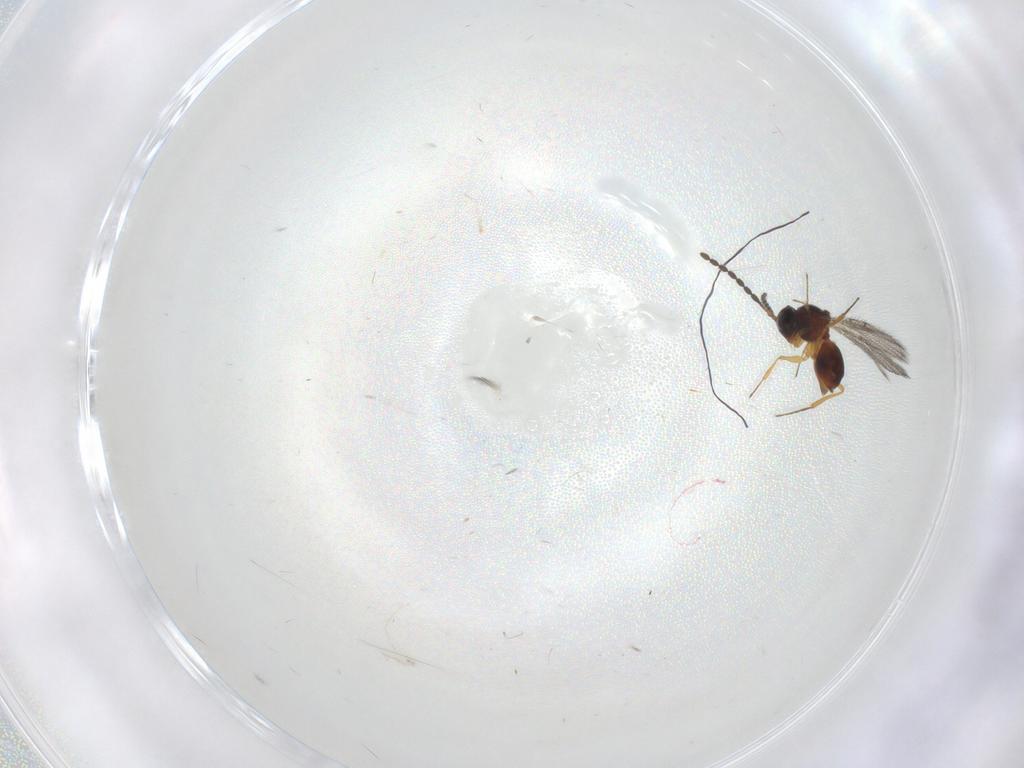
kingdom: Animalia
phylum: Arthropoda
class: Insecta
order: Hymenoptera
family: Figitidae
